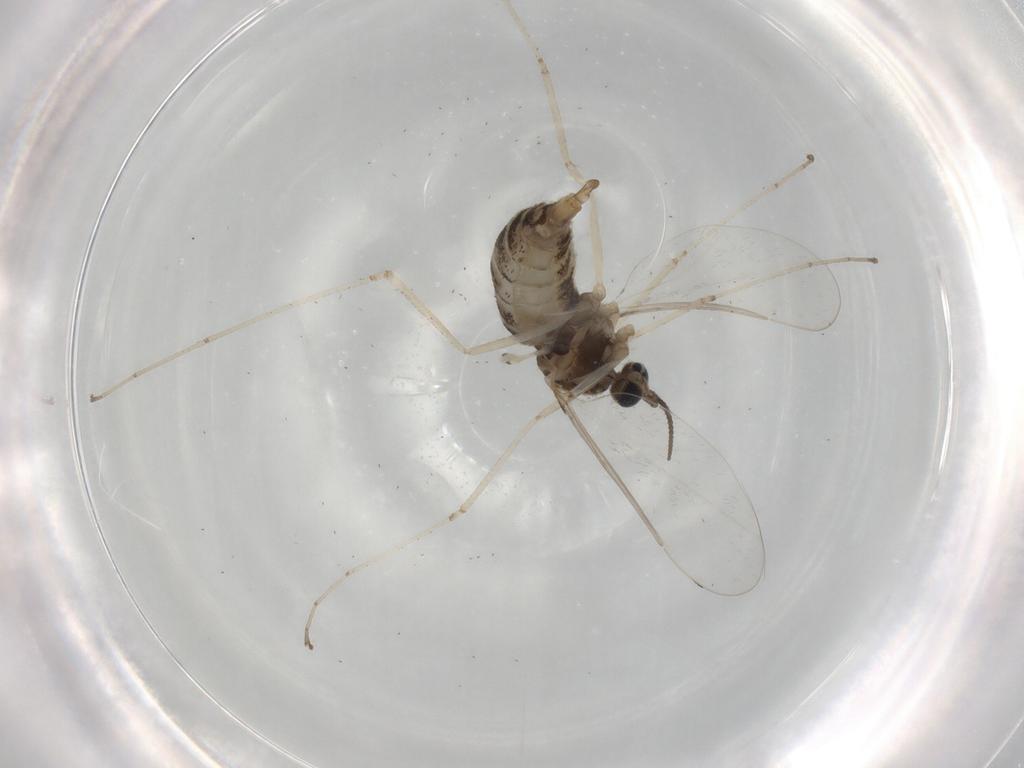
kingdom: Animalia
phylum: Arthropoda
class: Insecta
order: Diptera
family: Cecidomyiidae
